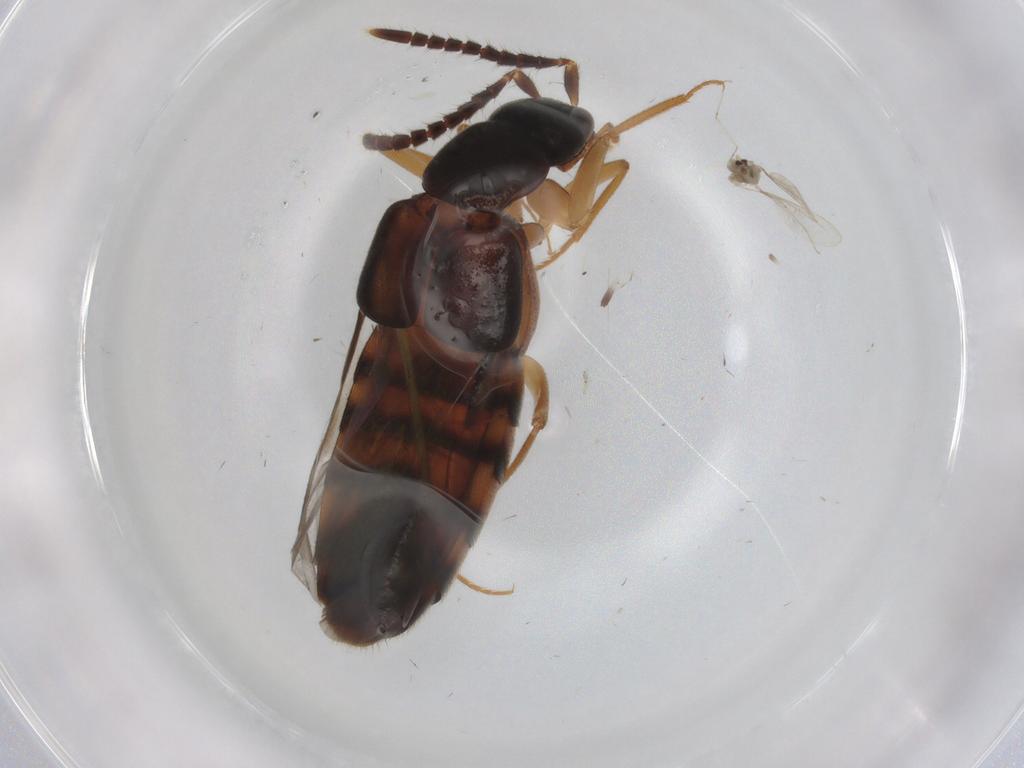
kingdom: Animalia
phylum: Arthropoda
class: Insecta
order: Coleoptera
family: Staphylinidae
